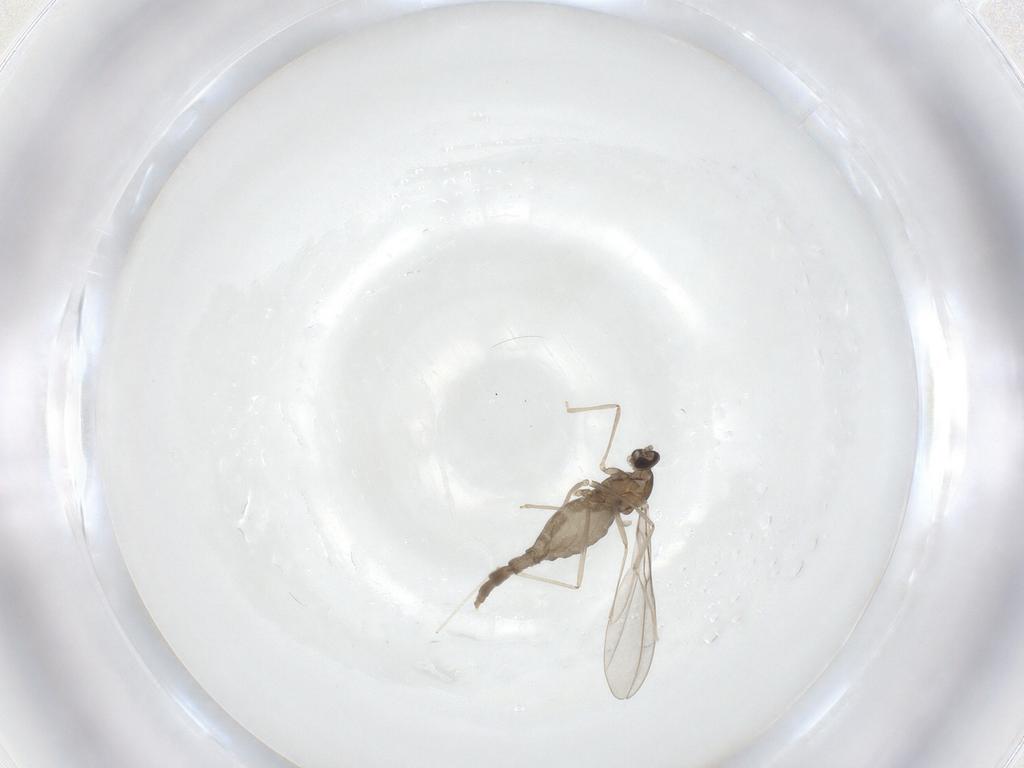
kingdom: Animalia
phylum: Arthropoda
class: Insecta
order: Diptera
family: Cecidomyiidae
